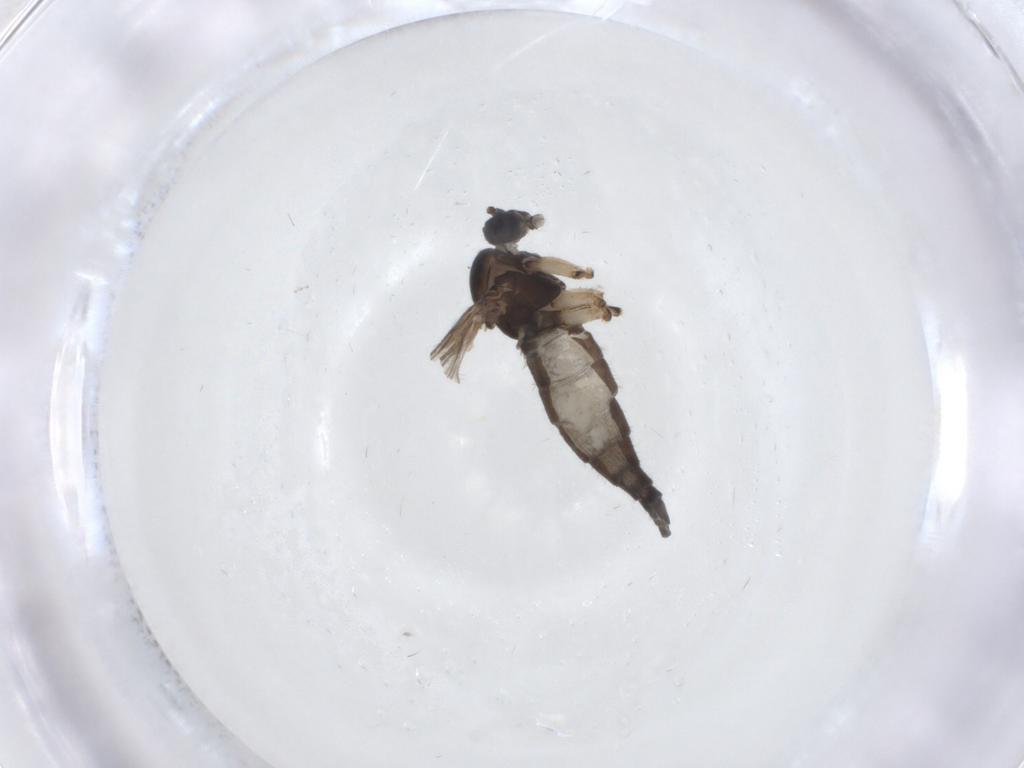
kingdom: Animalia
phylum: Arthropoda
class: Insecta
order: Diptera
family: Sciaridae
